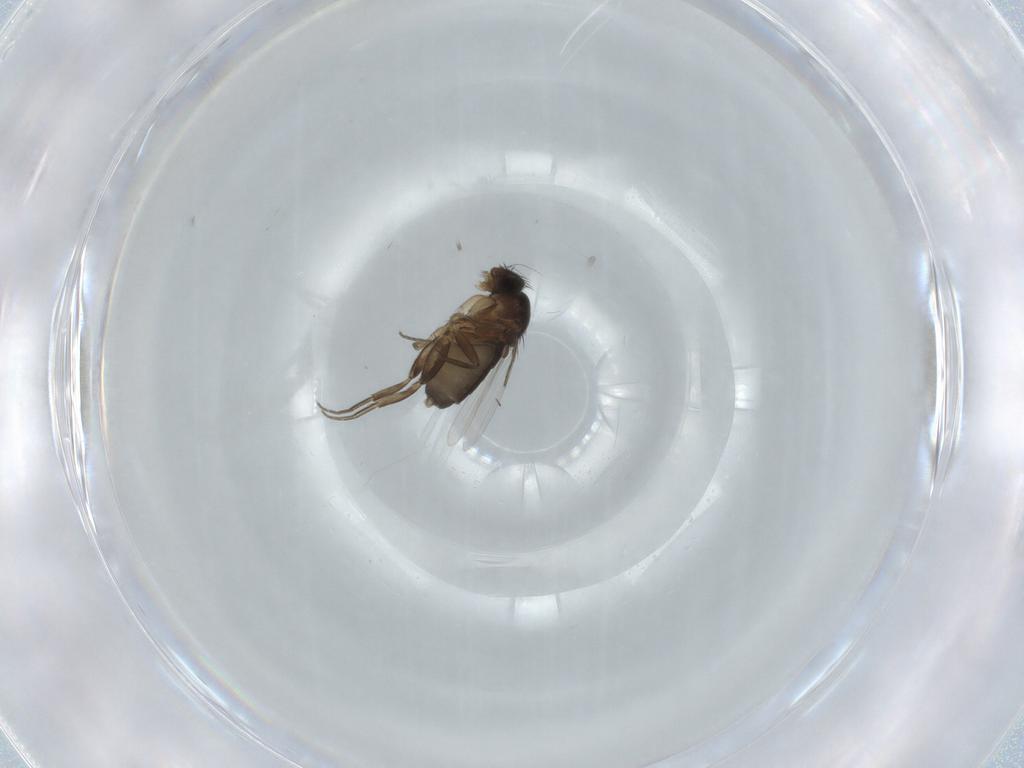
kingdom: Animalia
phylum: Arthropoda
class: Insecta
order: Diptera
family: Phoridae
